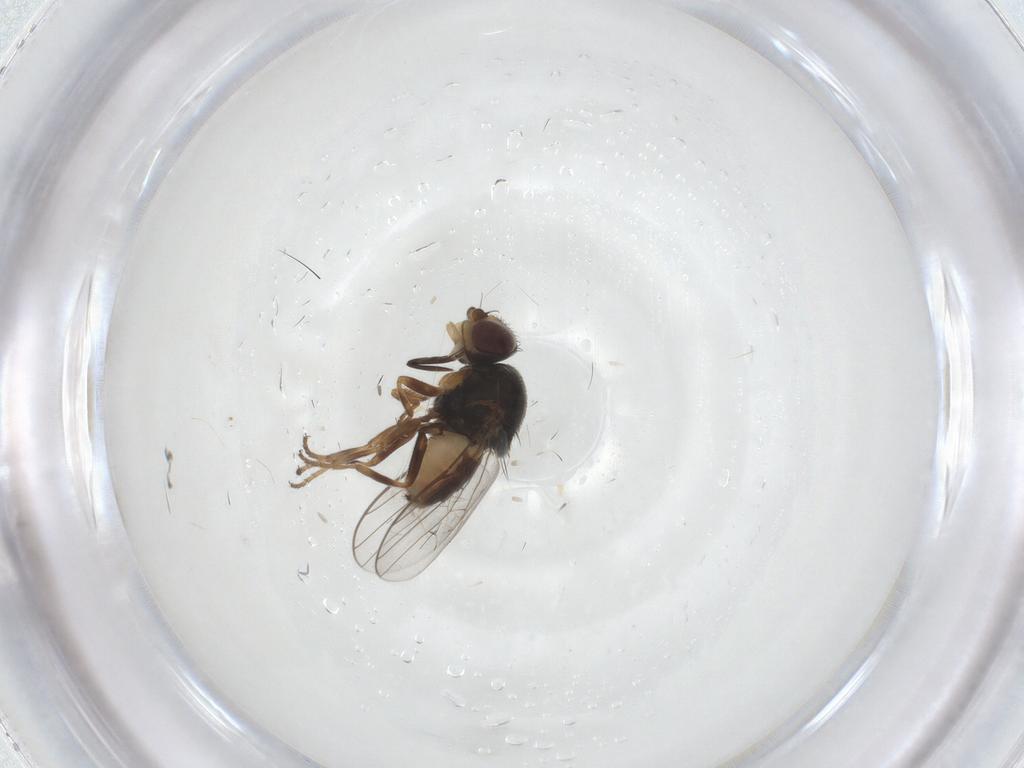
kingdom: Animalia
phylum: Arthropoda
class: Insecta
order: Diptera
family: Chloropidae
